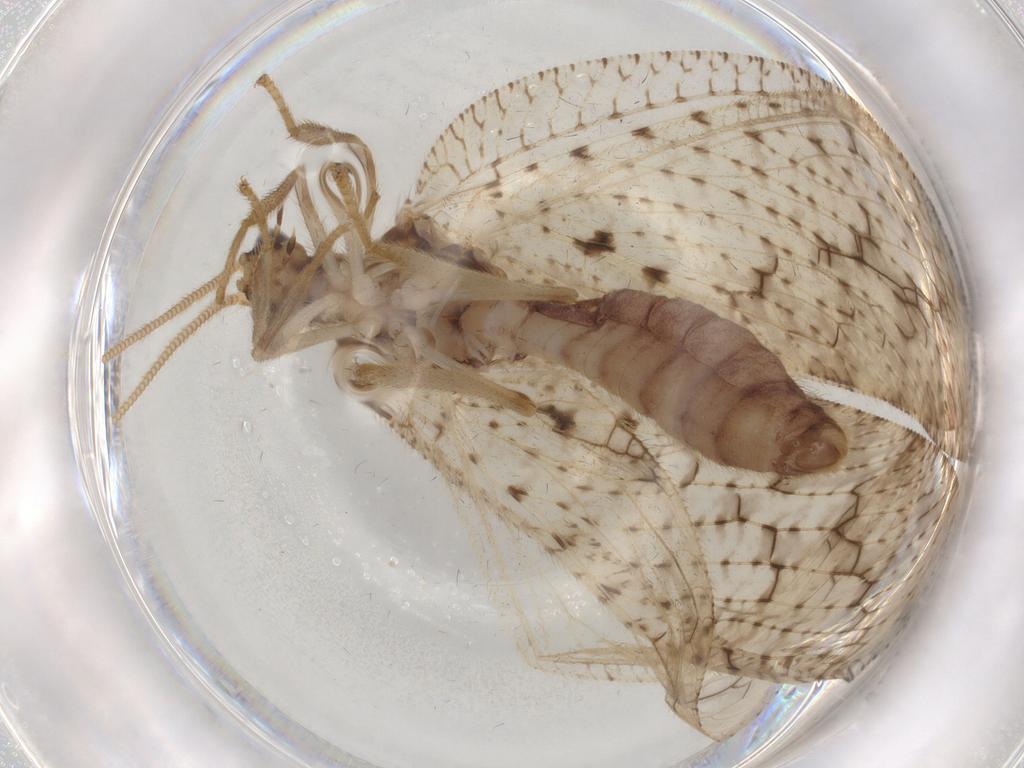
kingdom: Animalia
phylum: Arthropoda
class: Insecta
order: Neuroptera
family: Hemerobiidae
